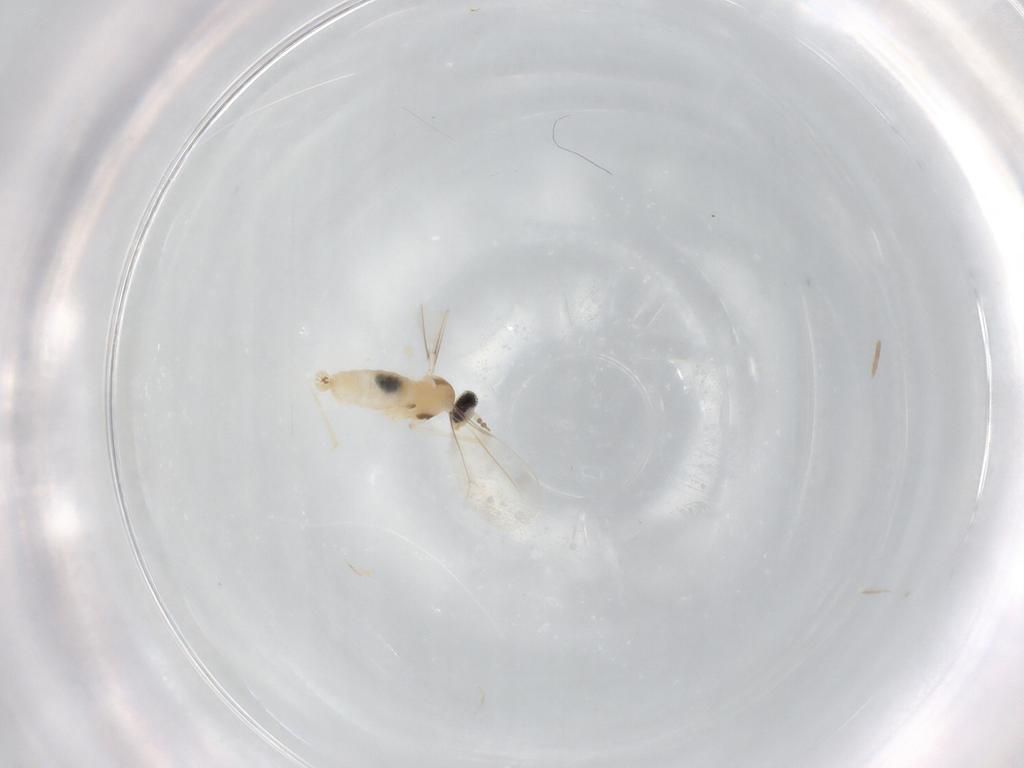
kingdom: Animalia
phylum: Arthropoda
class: Insecta
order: Diptera
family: Cecidomyiidae
